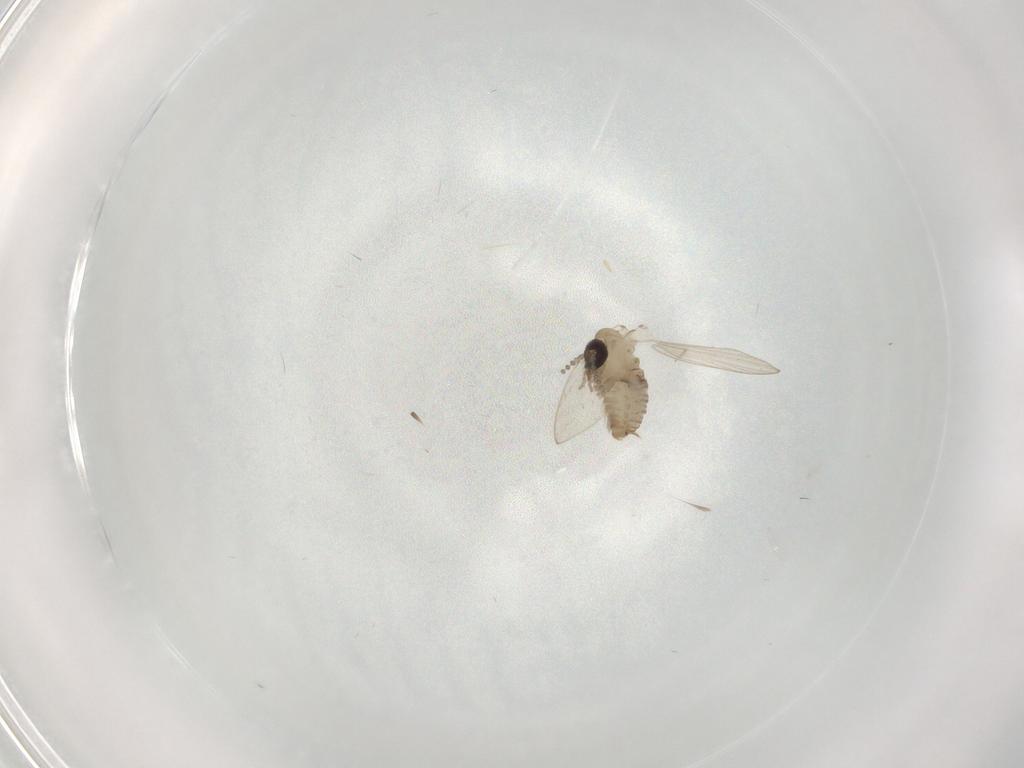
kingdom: Animalia
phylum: Arthropoda
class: Insecta
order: Diptera
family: Psychodidae
